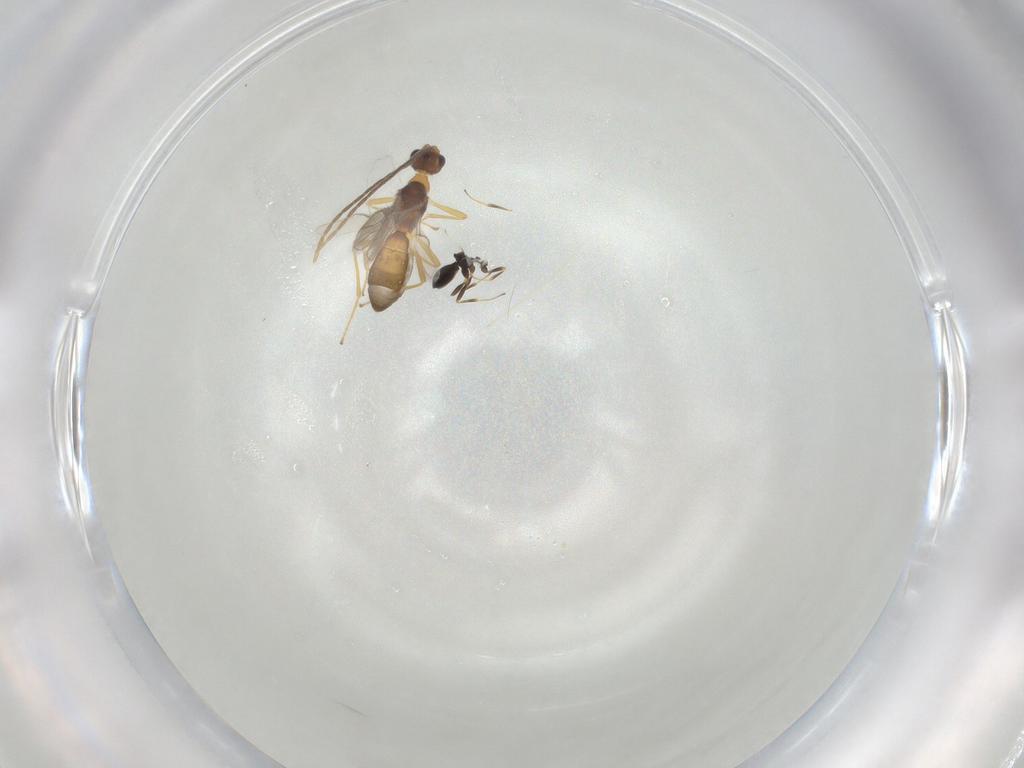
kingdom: Animalia
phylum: Arthropoda
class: Insecta
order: Hymenoptera
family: Scelionidae
